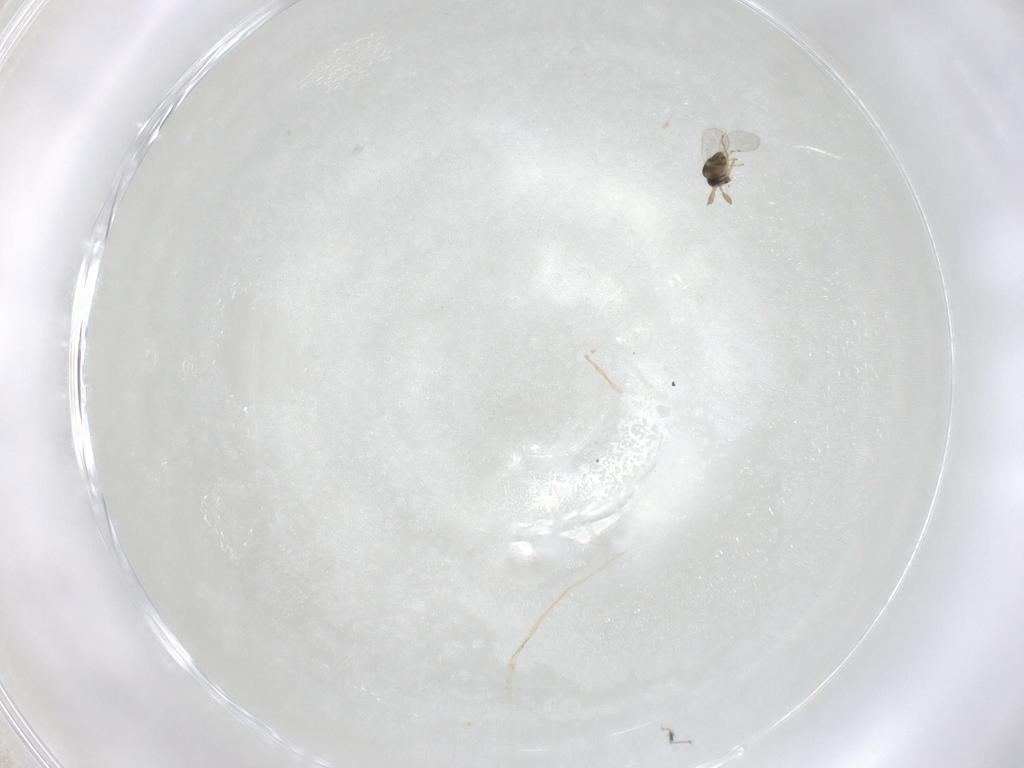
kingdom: Animalia
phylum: Arthropoda
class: Insecta
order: Hymenoptera
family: Encyrtidae
